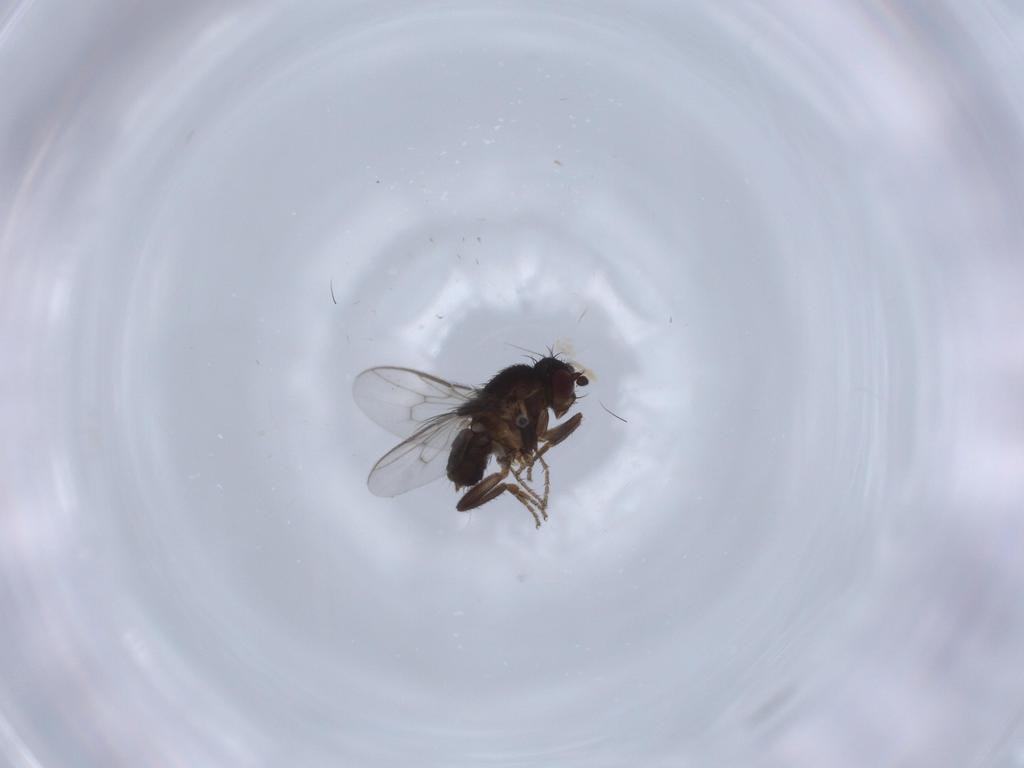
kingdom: Animalia
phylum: Arthropoda
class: Insecta
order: Diptera
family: Sphaeroceridae
